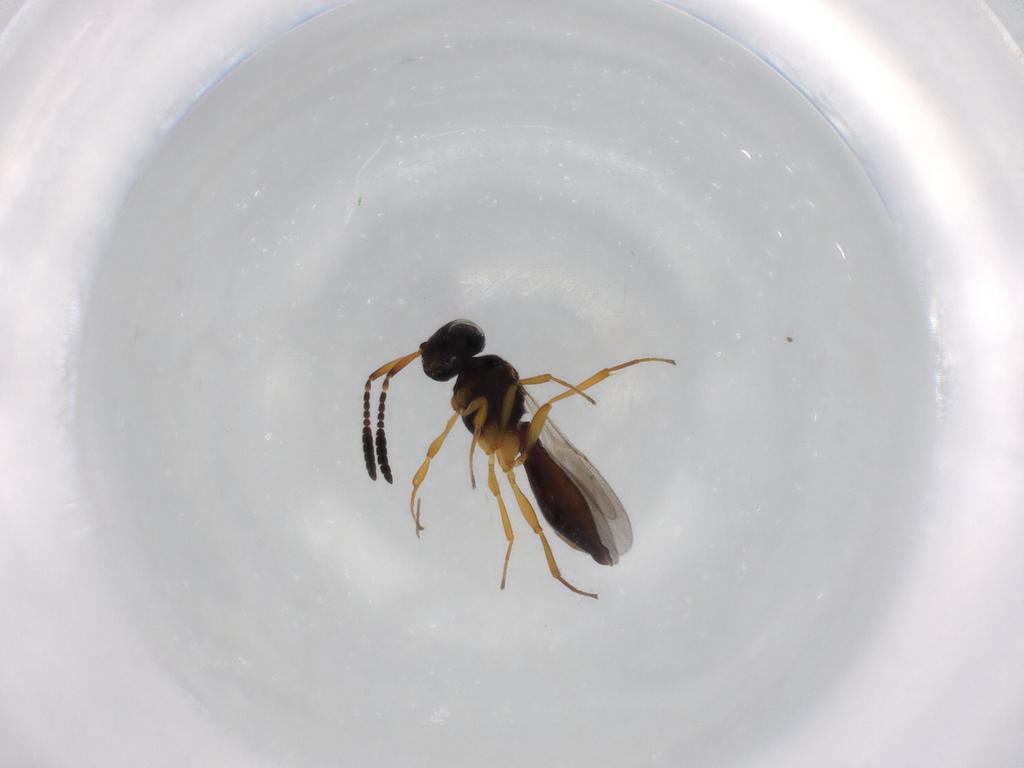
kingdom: Animalia
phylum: Arthropoda
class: Insecta
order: Hymenoptera
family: Scelionidae
